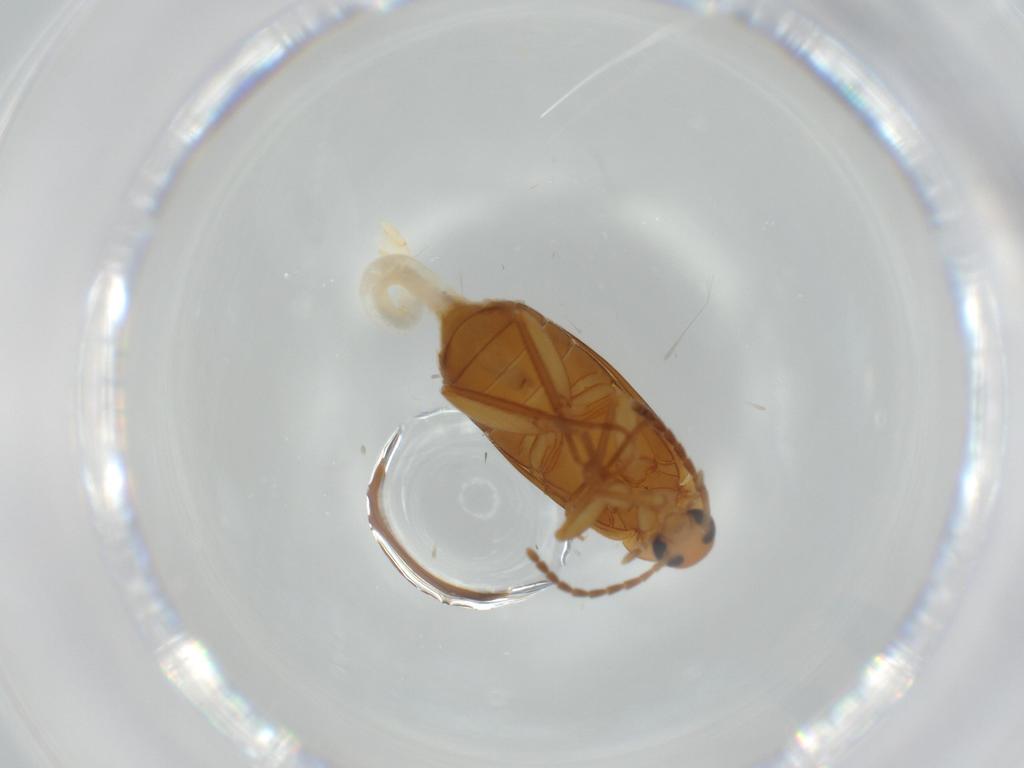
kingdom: Animalia
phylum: Arthropoda
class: Insecta
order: Coleoptera
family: Scraptiidae
